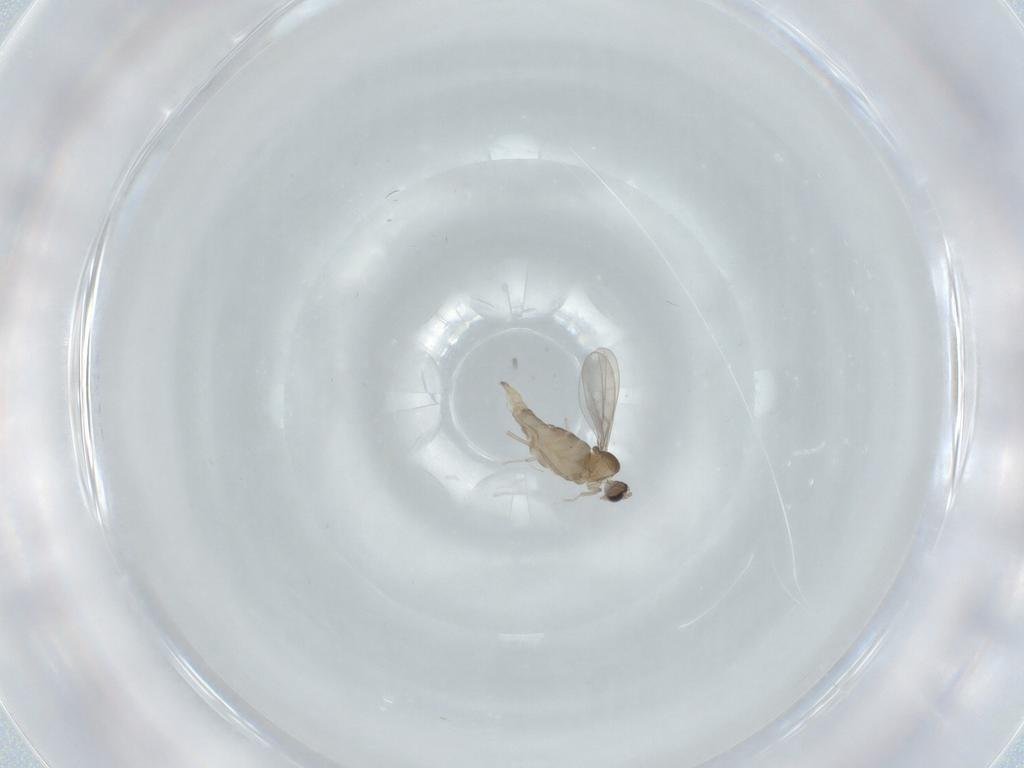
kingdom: Animalia
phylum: Arthropoda
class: Insecta
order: Diptera
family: Cecidomyiidae
